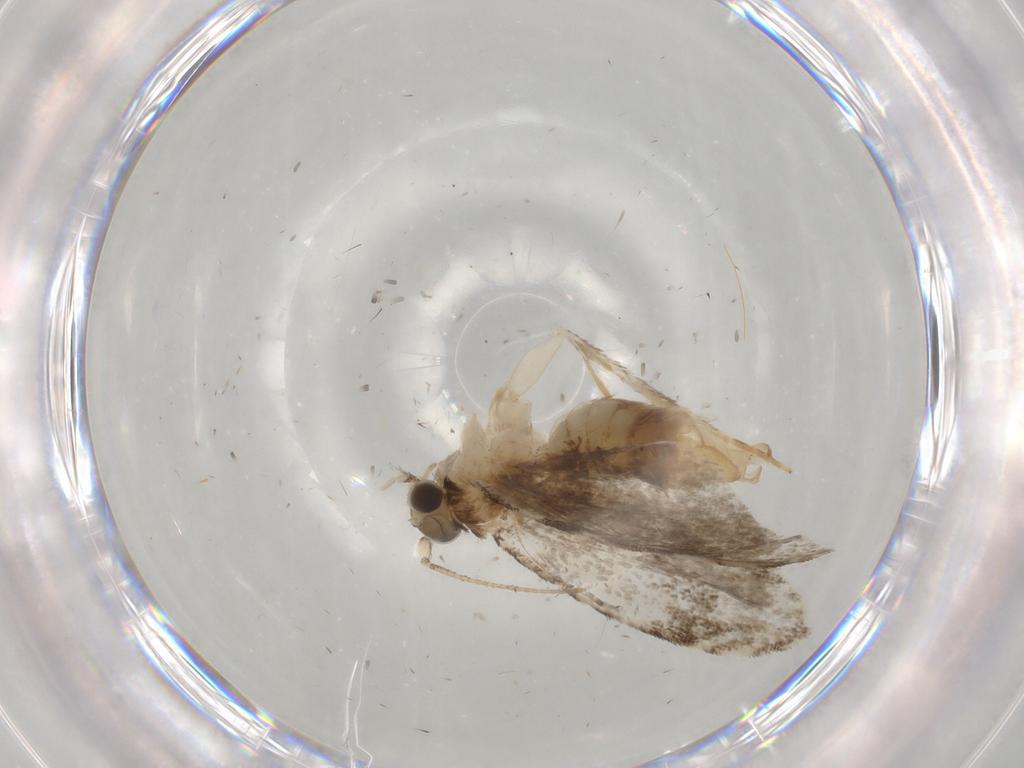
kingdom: Animalia
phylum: Arthropoda
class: Insecta
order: Lepidoptera
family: Tineidae
